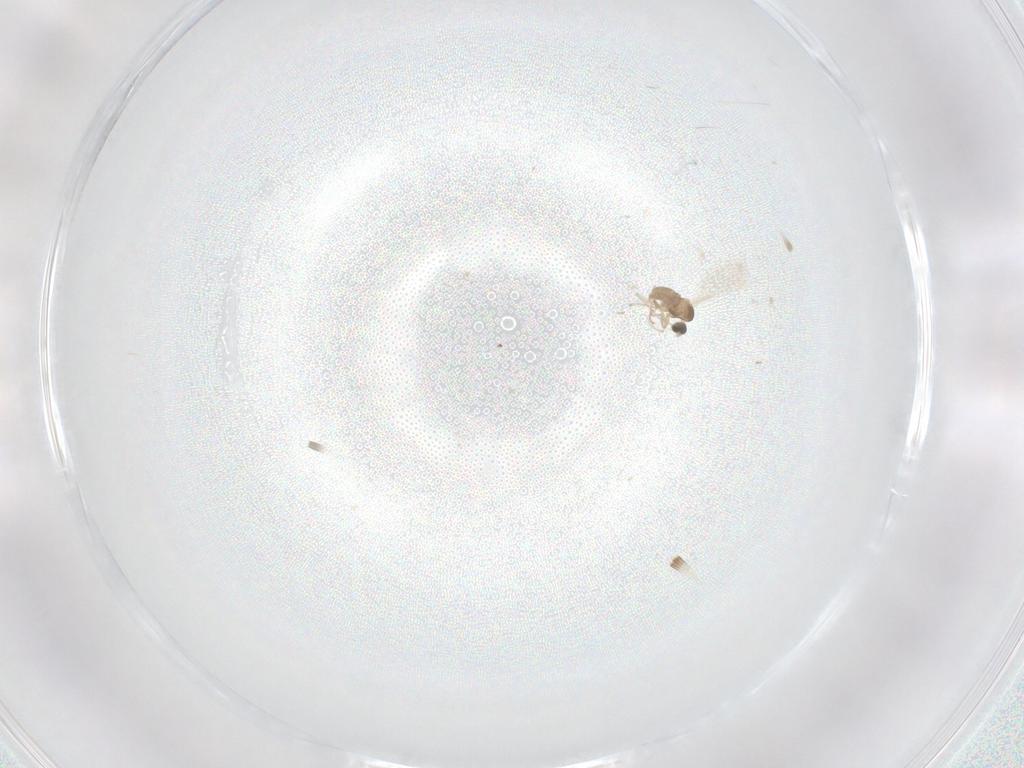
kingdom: Animalia
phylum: Arthropoda
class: Insecta
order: Diptera
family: Cecidomyiidae
